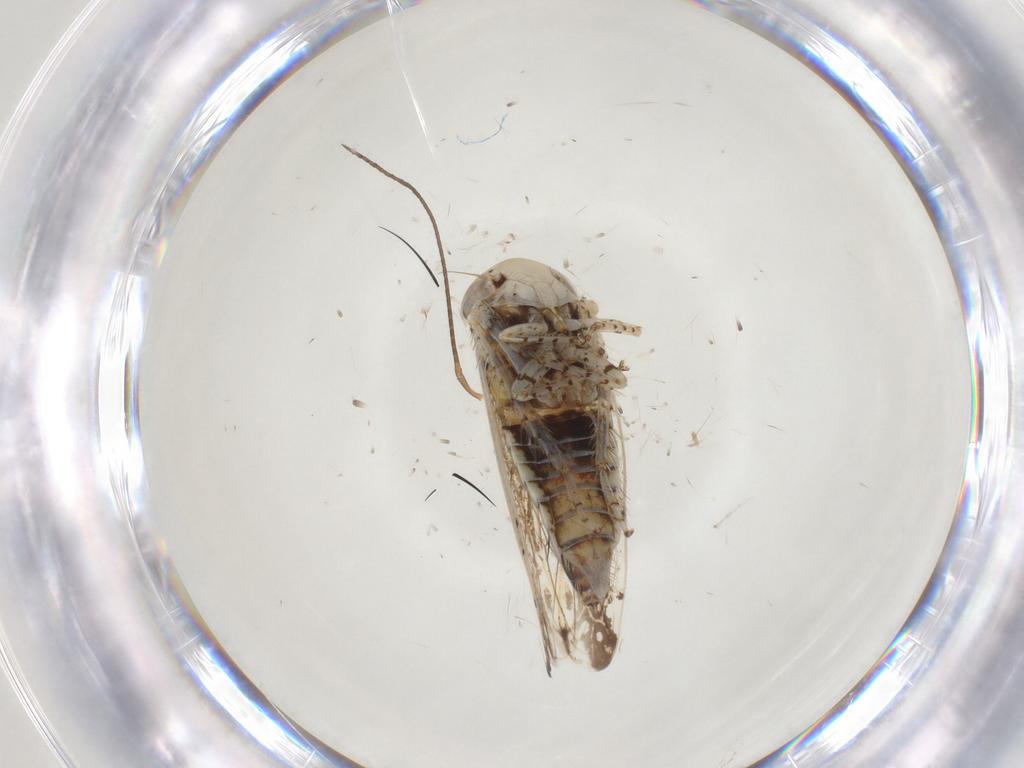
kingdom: Animalia
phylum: Arthropoda
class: Insecta
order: Hemiptera
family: Cicadellidae
